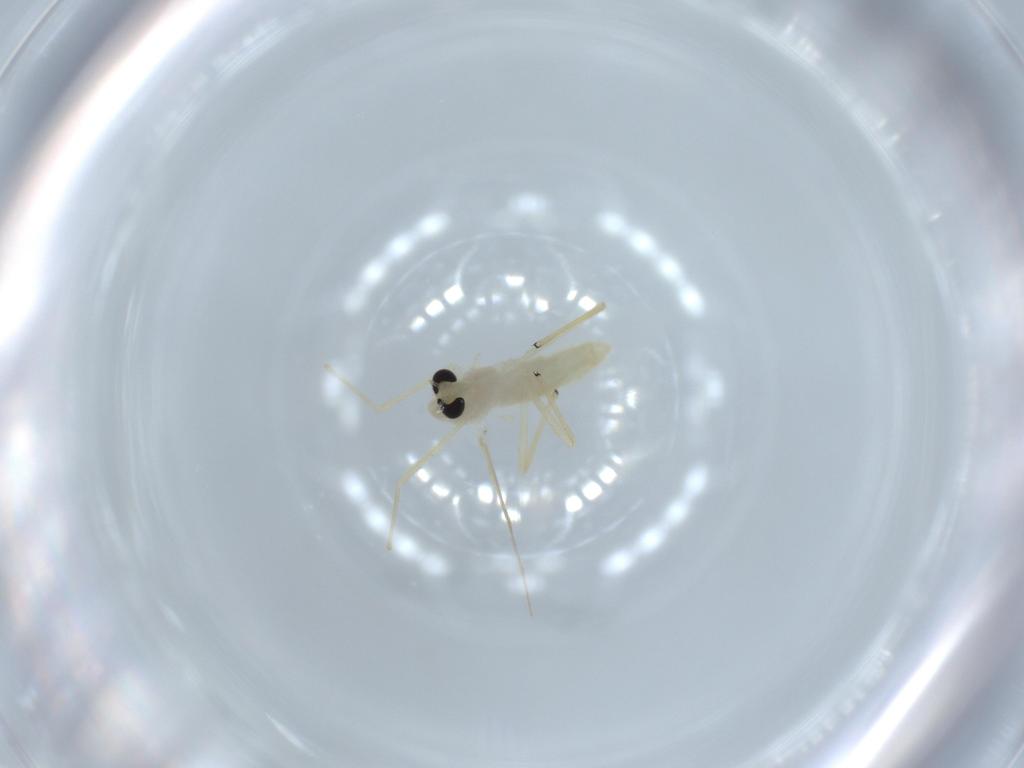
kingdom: Animalia
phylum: Arthropoda
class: Insecta
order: Diptera
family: Chironomidae
